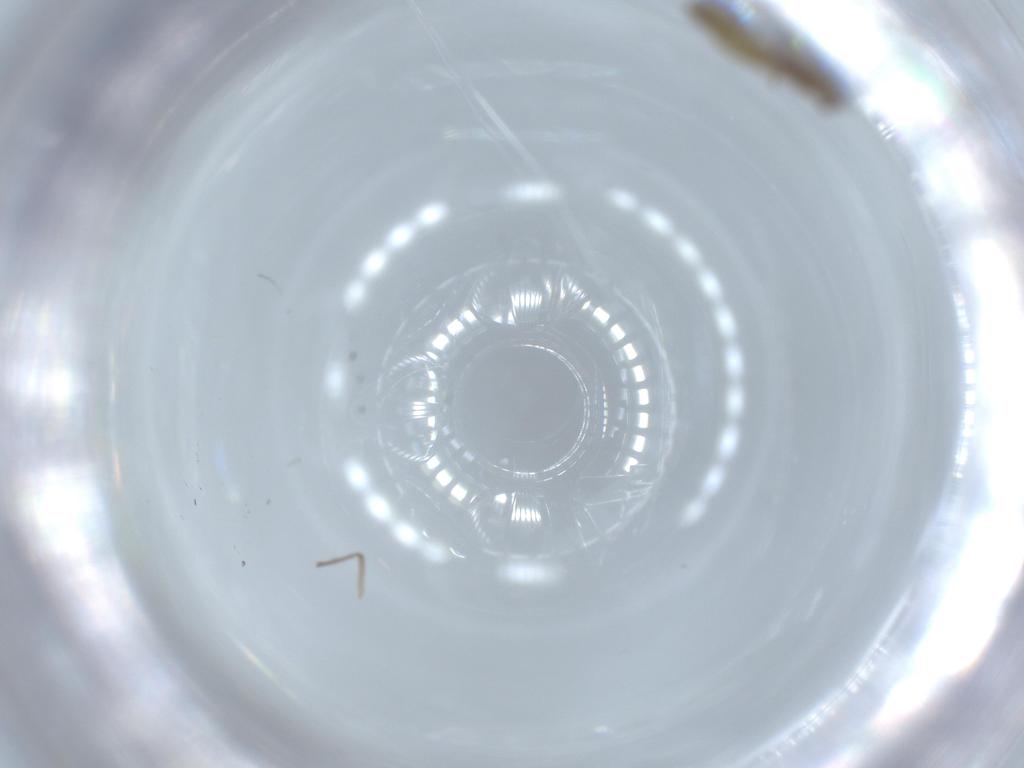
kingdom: Animalia
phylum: Arthropoda
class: Insecta
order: Diptera
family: Chironomidae
